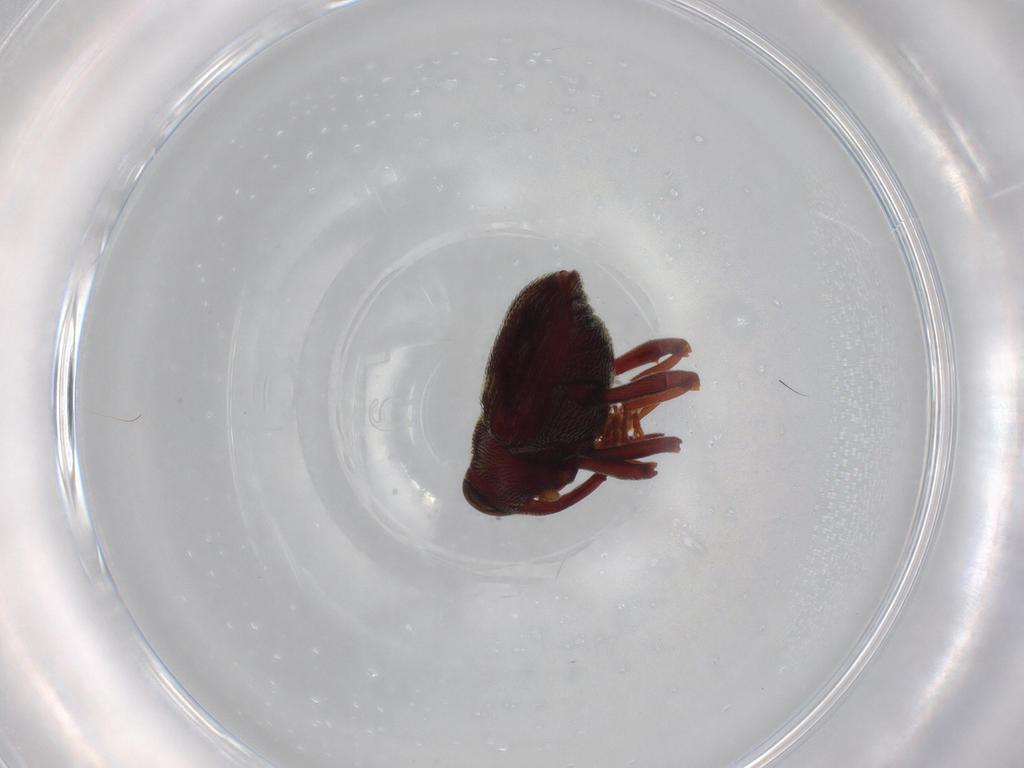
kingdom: Animalia
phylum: Arthropoda
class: Insecta
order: Coleoptera
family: Curculionidae
